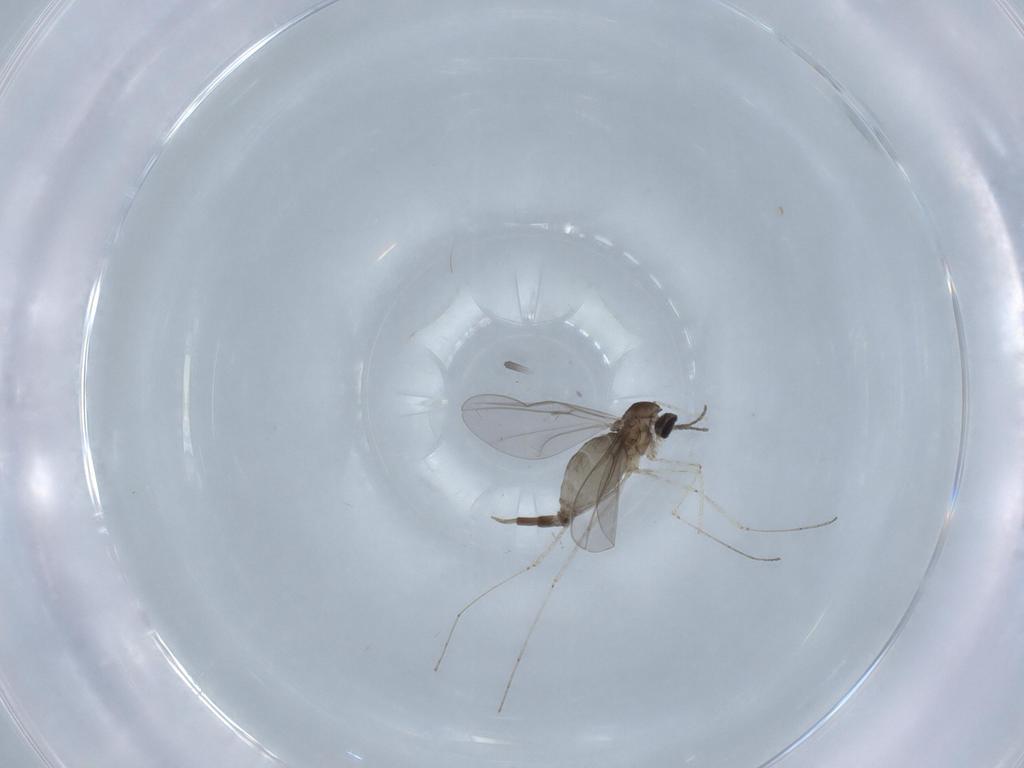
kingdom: Animalia
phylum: Arthropoda
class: Insecta
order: Diptera
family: Cecidomyiidae
